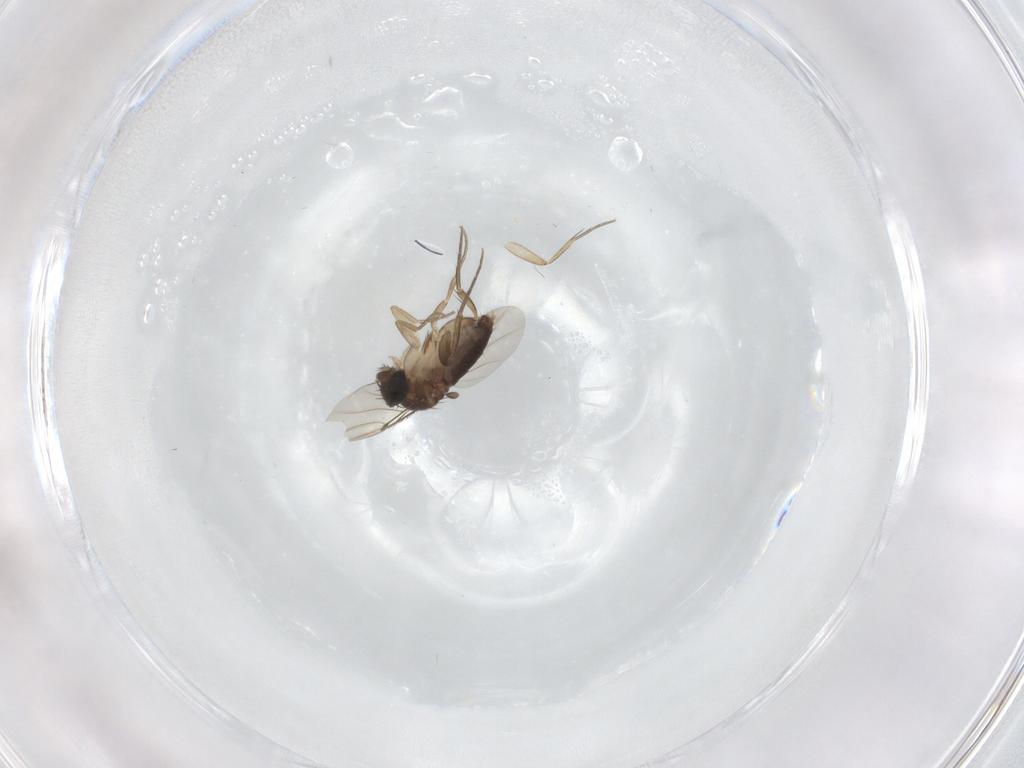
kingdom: Animalia
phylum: Arthropoda
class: Insecta
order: Diptera
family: Phoridae
